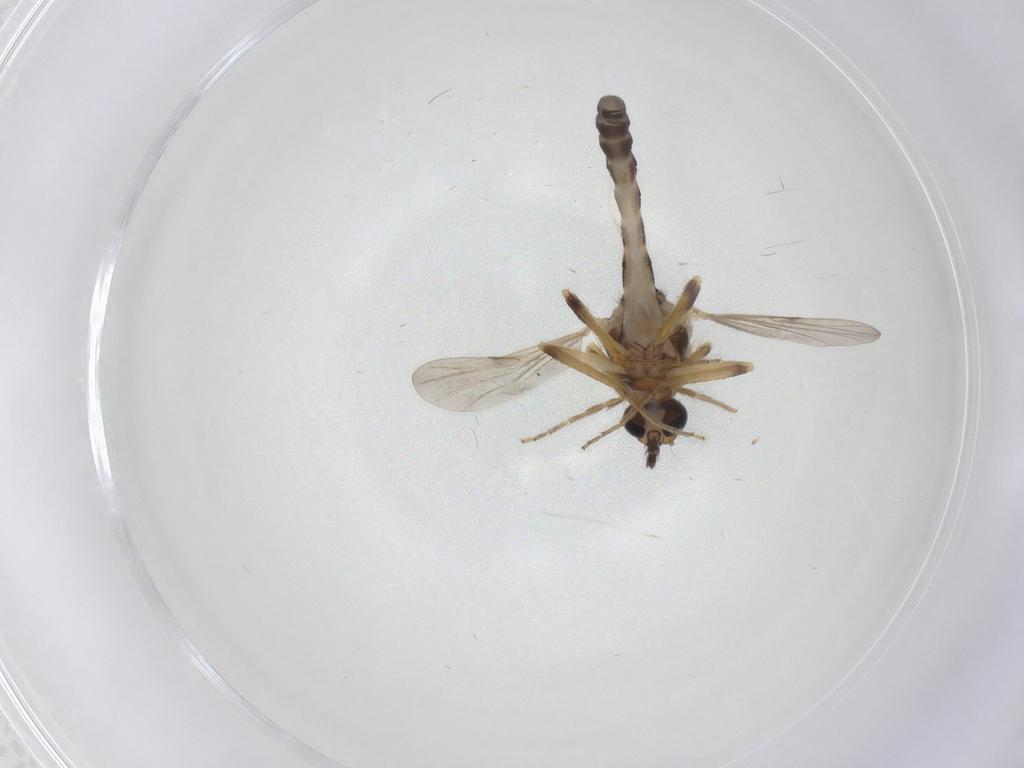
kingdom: Animalia
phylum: Arthropoda
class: Insecta
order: Diptera
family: Ceratopogonidae
